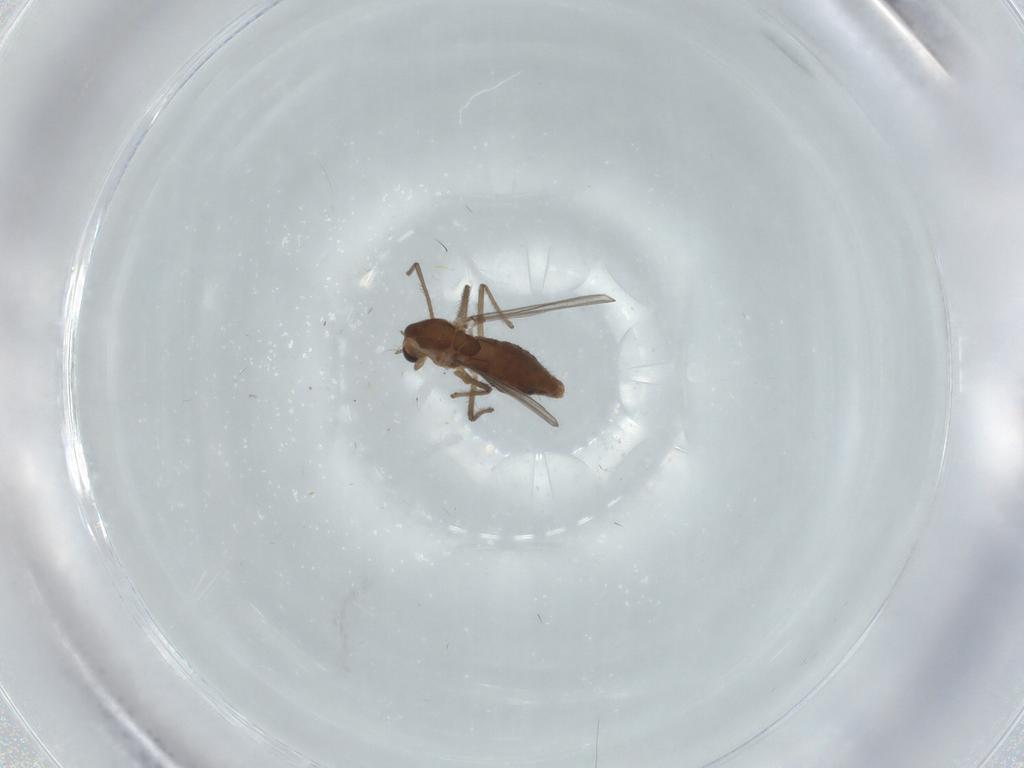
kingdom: Animalia
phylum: Arthropoda
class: Insecta
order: Diptera
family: Chironomidae
